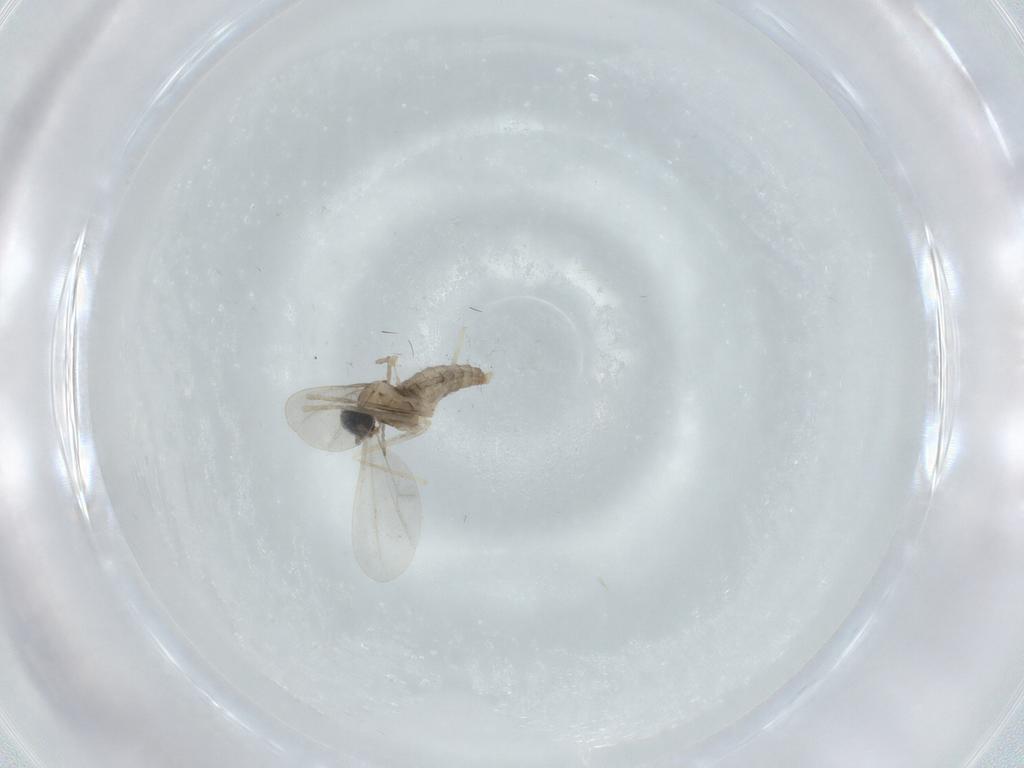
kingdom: Animalia
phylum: Arthropoda
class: Insecta
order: Diptera
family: Cecidomyiidae
